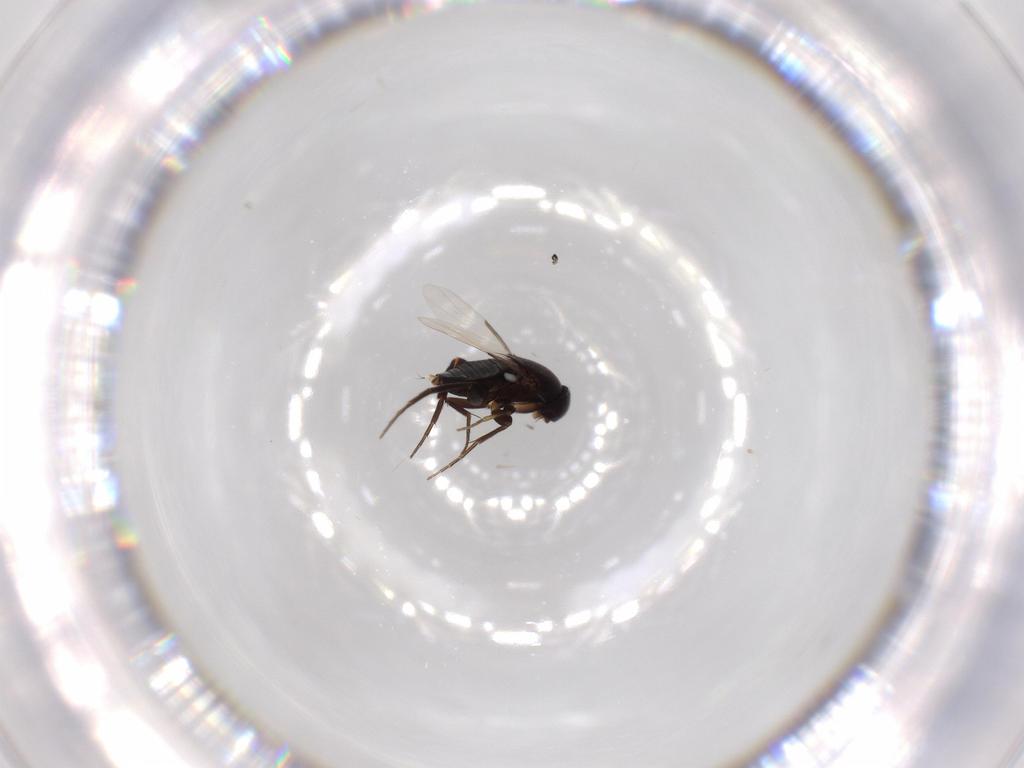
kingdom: Animalia
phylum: Arthropoda
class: Insecta
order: Diptera
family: Phoridae
